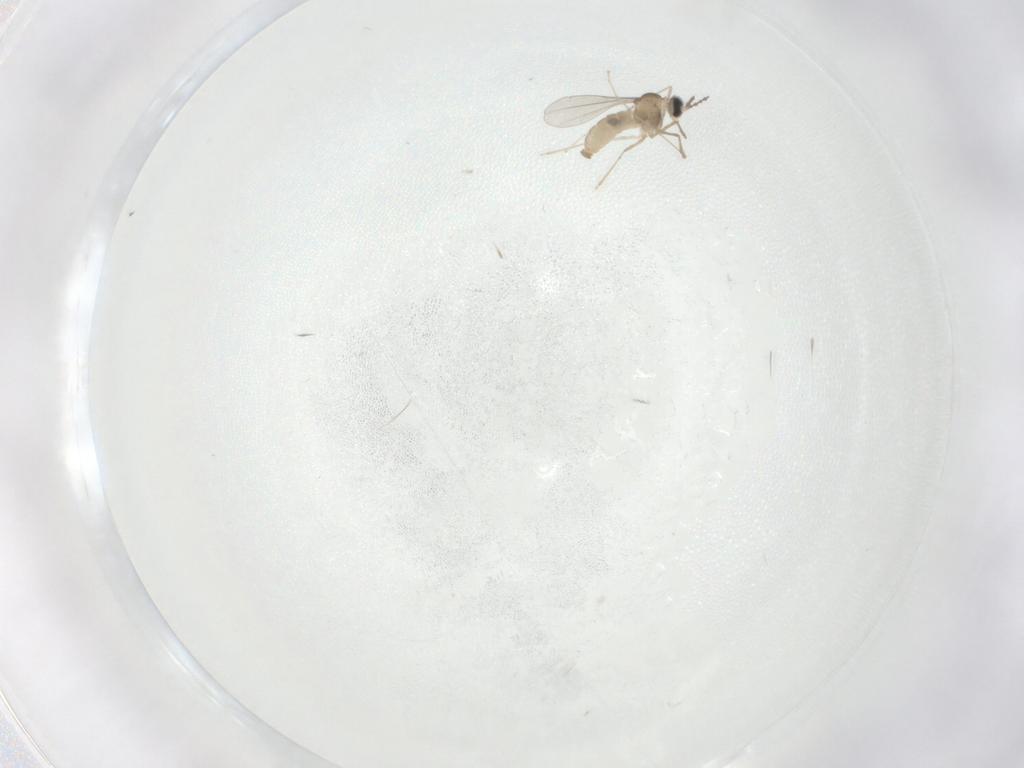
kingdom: Animalia
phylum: Arthropoda
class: Insecta
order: Diptera
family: Cecidomyiidae
